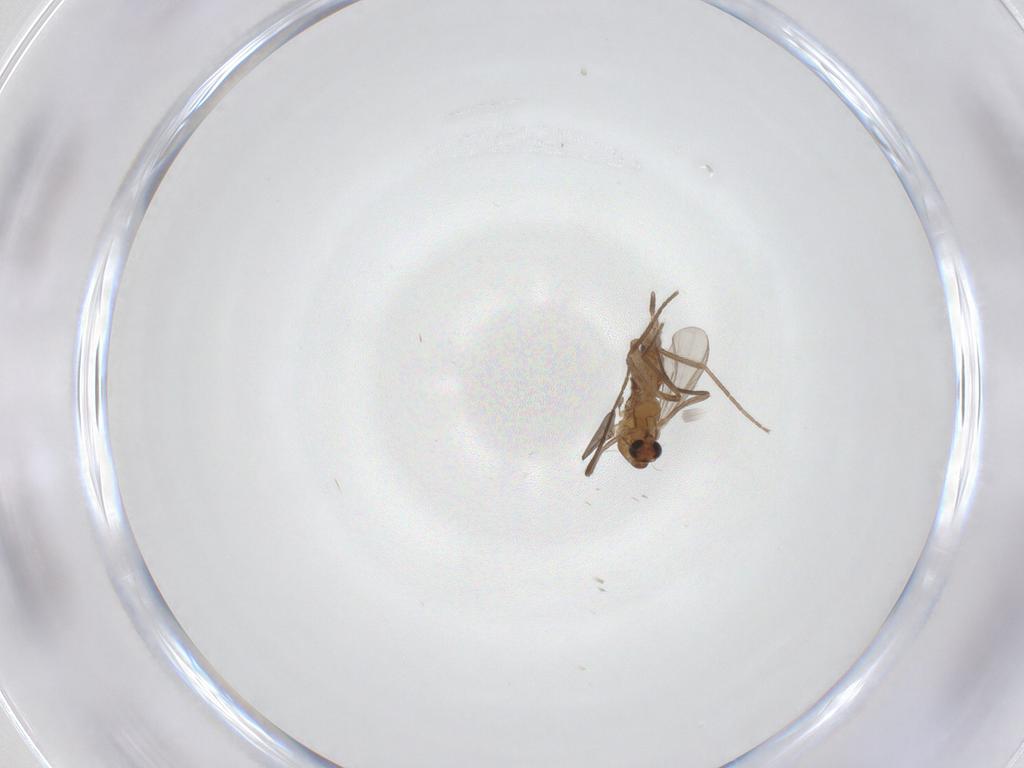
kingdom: Animalia
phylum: Arthropoda
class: Insecta
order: Diptera
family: Chironomidae
